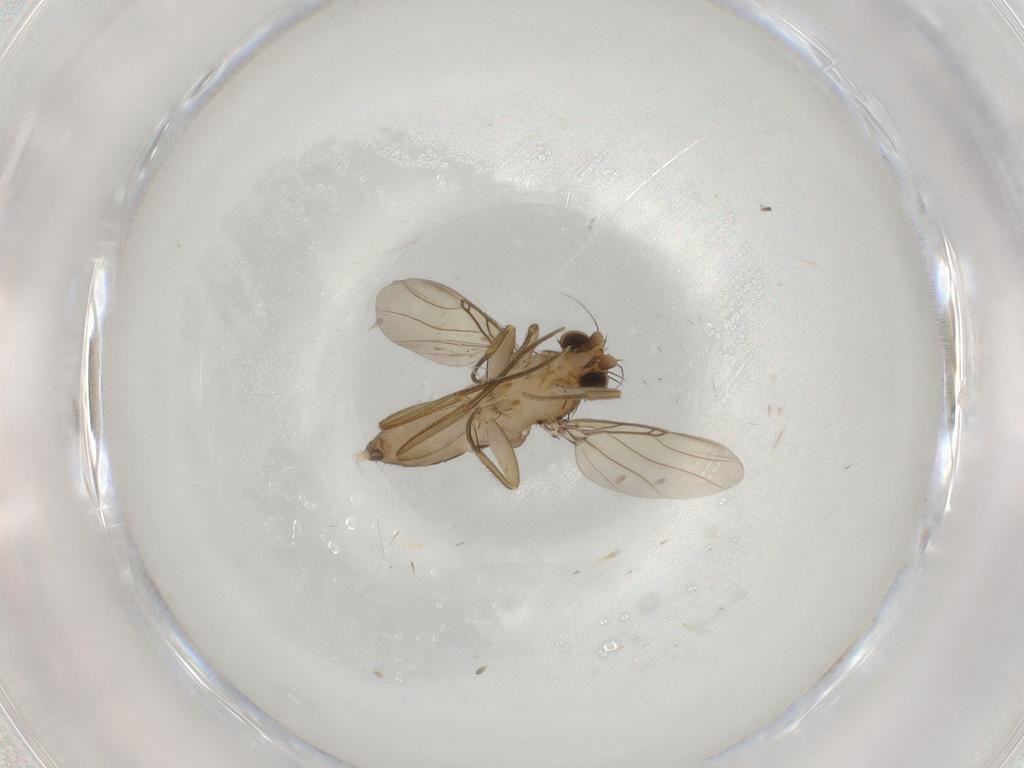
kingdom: Animalia
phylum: Arthropoda
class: Insecta
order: Diptera
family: Phoridae
